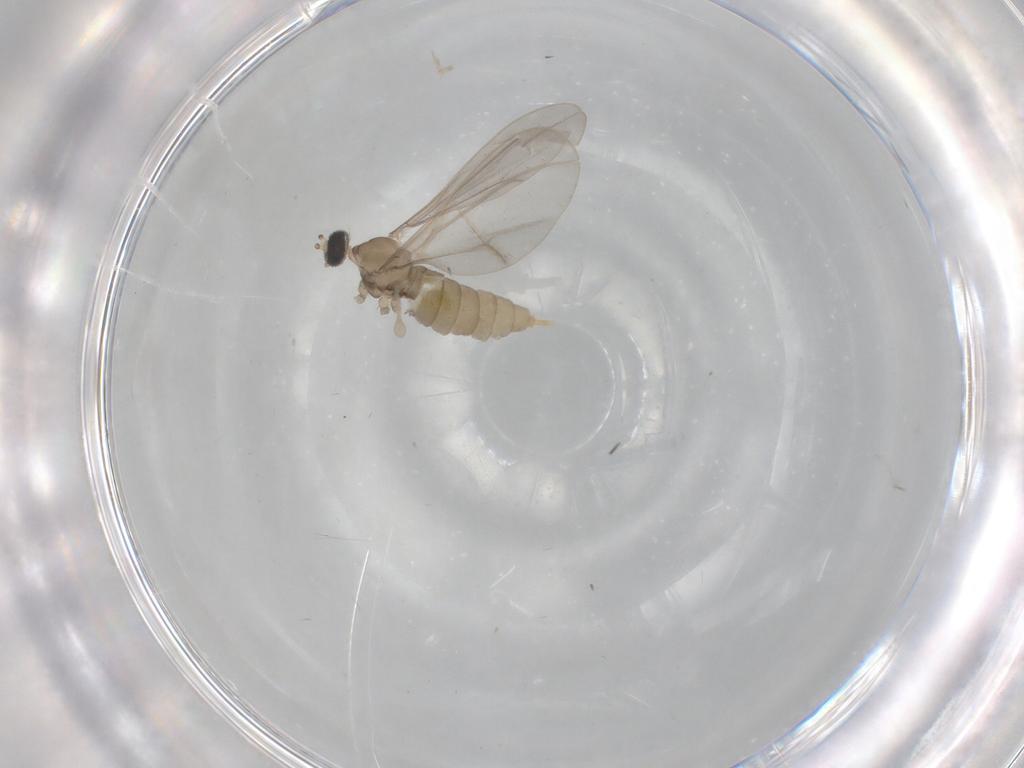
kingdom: Animalia
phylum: Arthropoda
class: Insecta
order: Diptera
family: Cecidomyiidae
